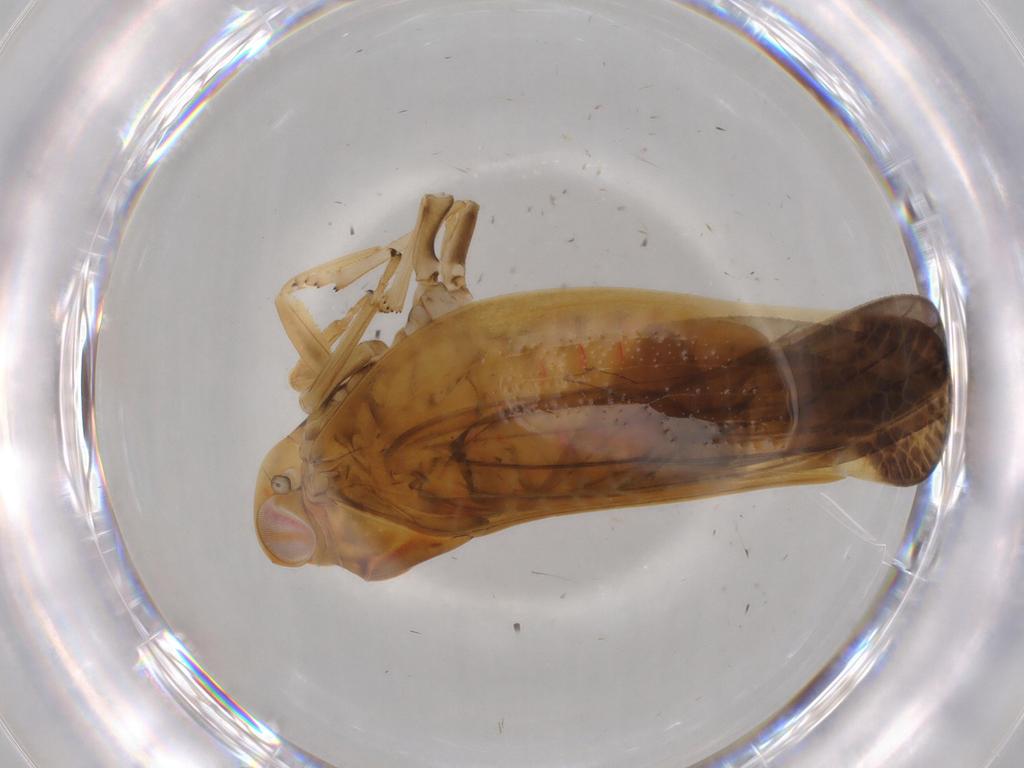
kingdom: Animalia
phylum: Arthropoda
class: Insecta
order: Hemiptera
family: Nogodinidae
